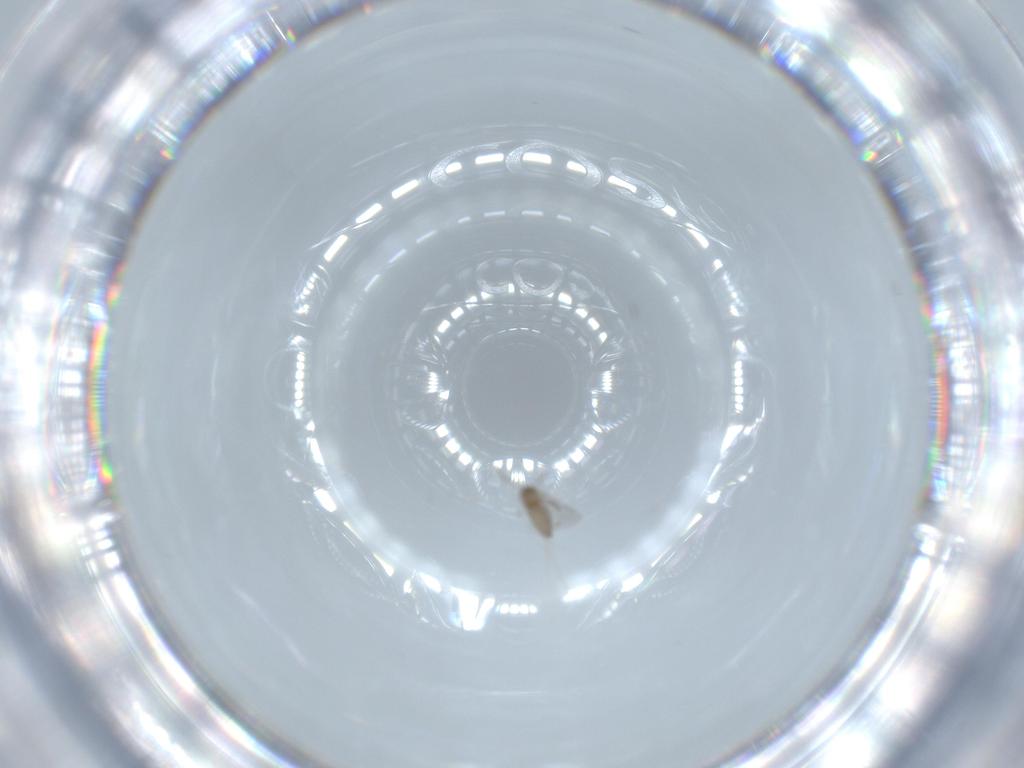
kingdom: Animalia
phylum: Arthropoda
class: Insecta
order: Diptera
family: Sciaridae
